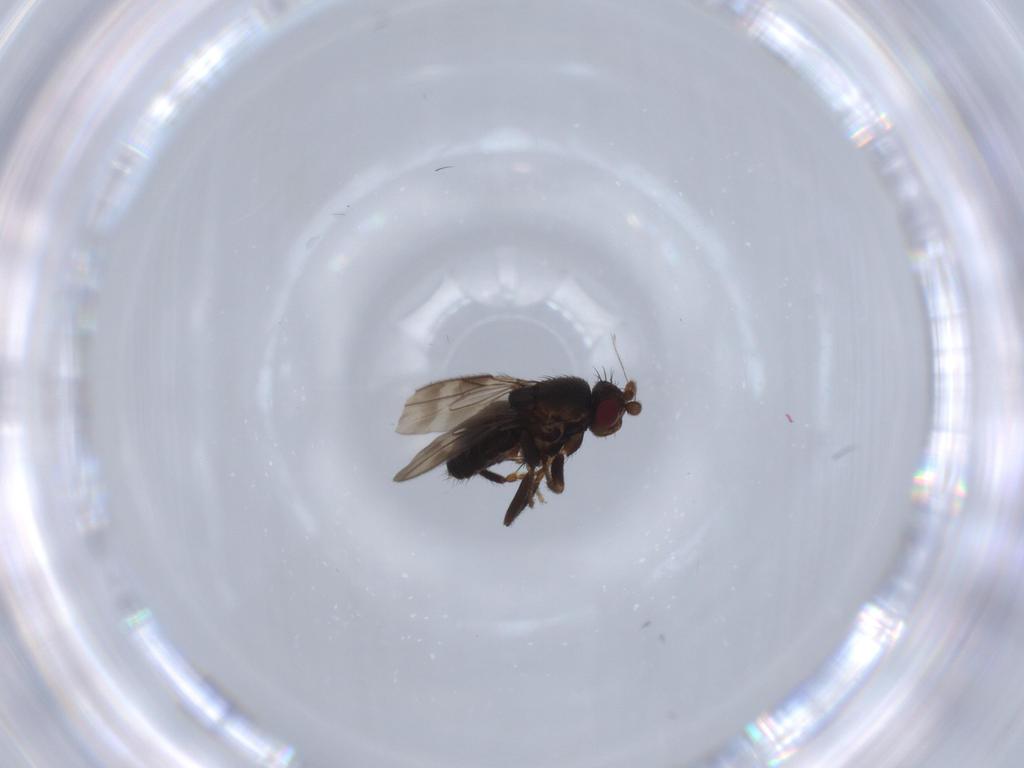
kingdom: Animalia
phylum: Arthropoda
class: Insecta
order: Diptera
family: Sphaeroceridae
